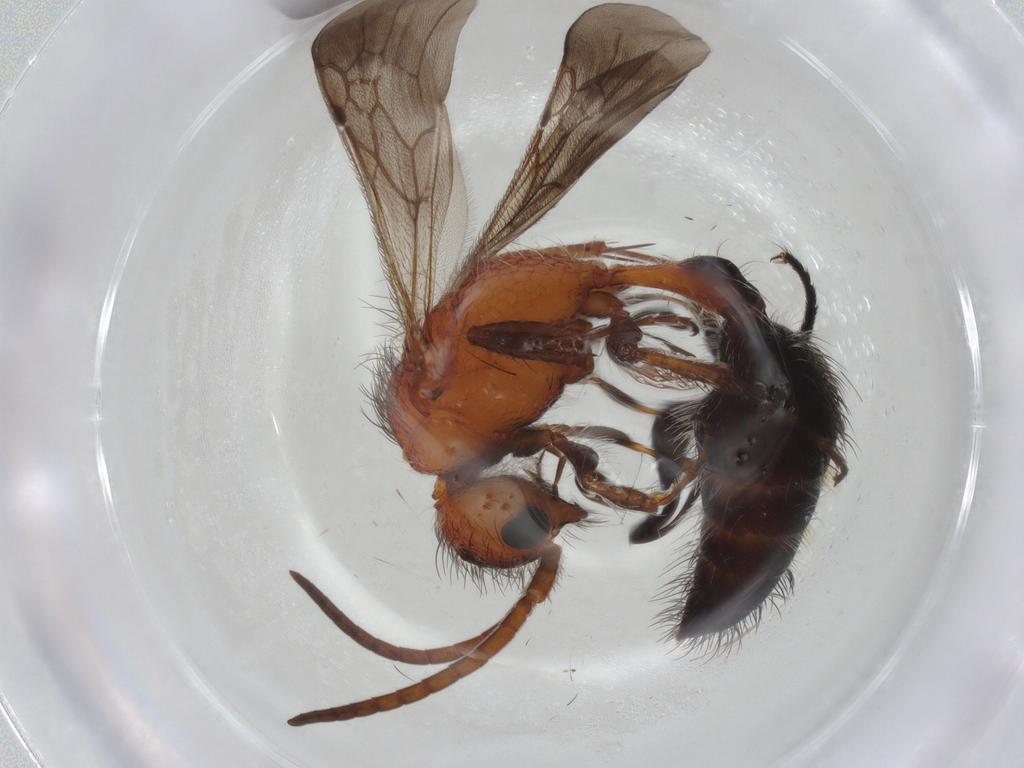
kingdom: Animalia
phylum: Arthropoda
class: Insecta
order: Hymenoptera
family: Mutillidae
